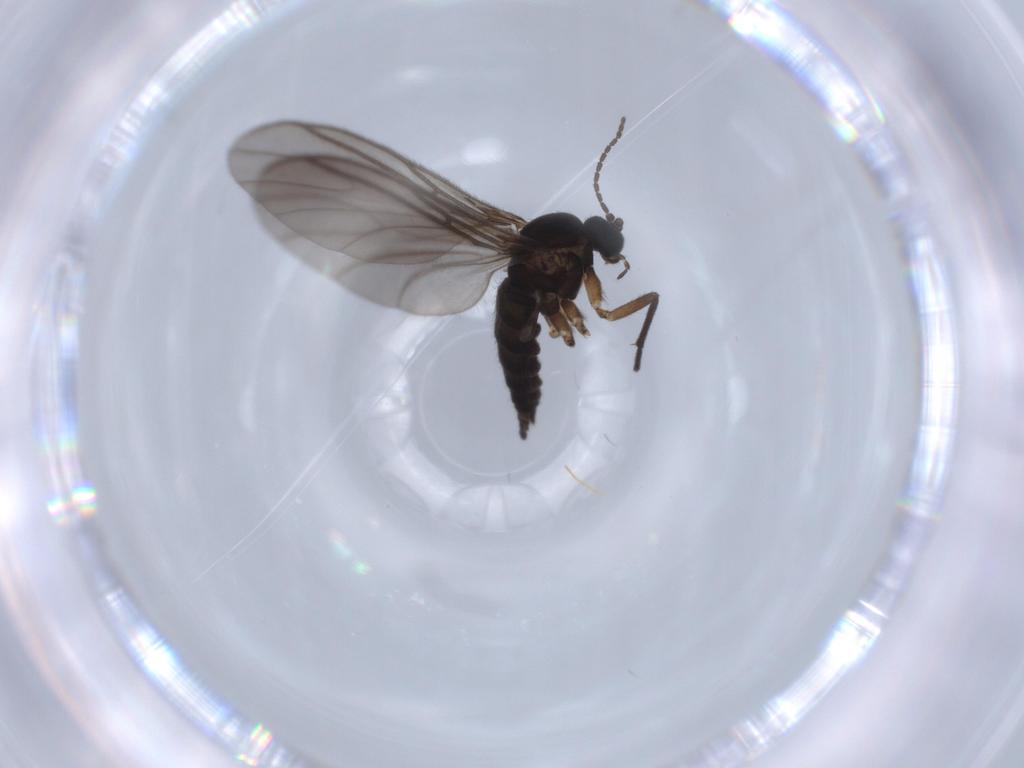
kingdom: Animalia
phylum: Arthropoda
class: Insecta
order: Diptera
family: Sciaridae
